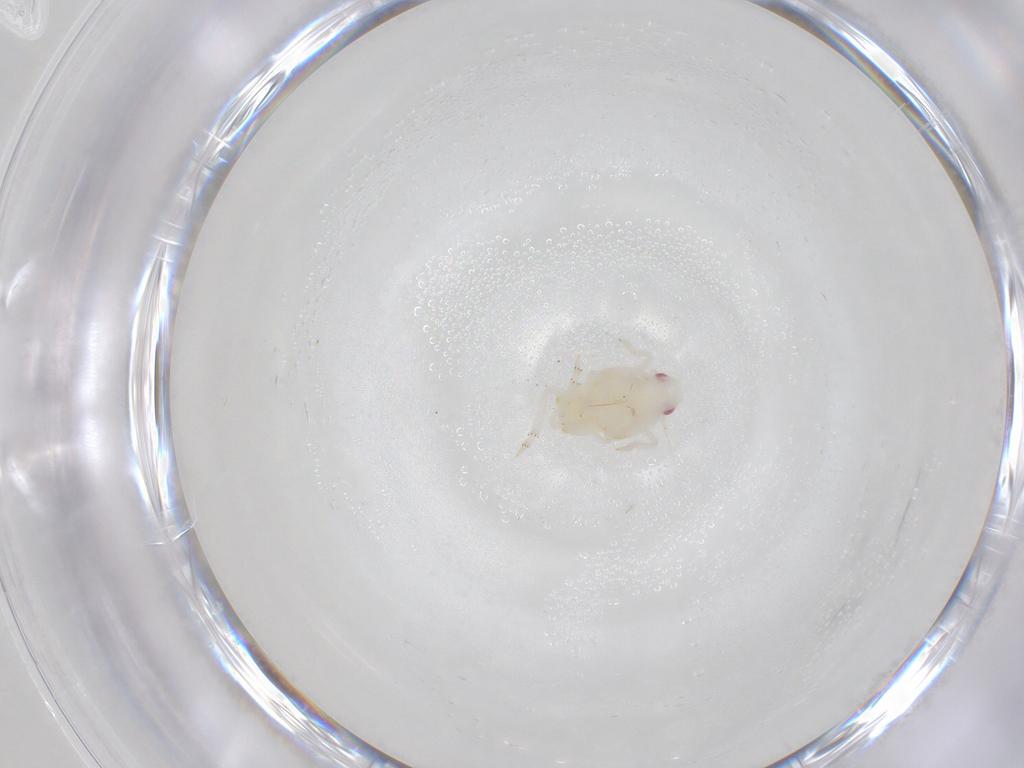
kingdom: Animalia
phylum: Arthropoda
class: Insecta
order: Hemiptera
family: Flatidae
